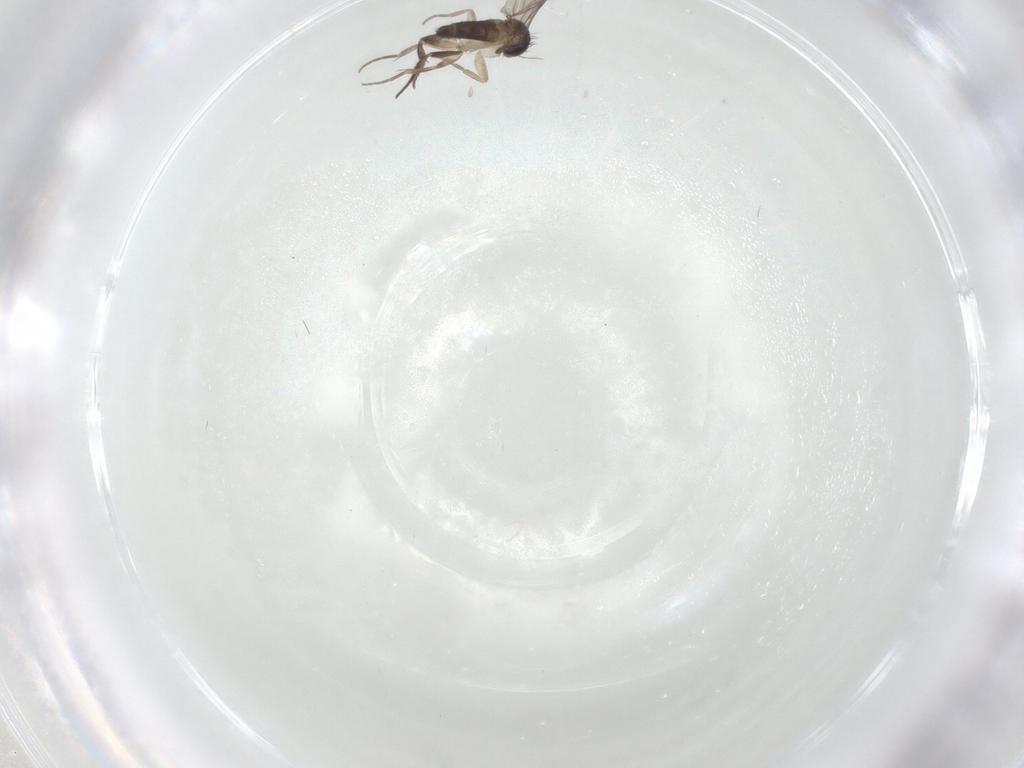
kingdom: Animalia
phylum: Arthropoda
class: Insecta
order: Diptera
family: Phoridae
